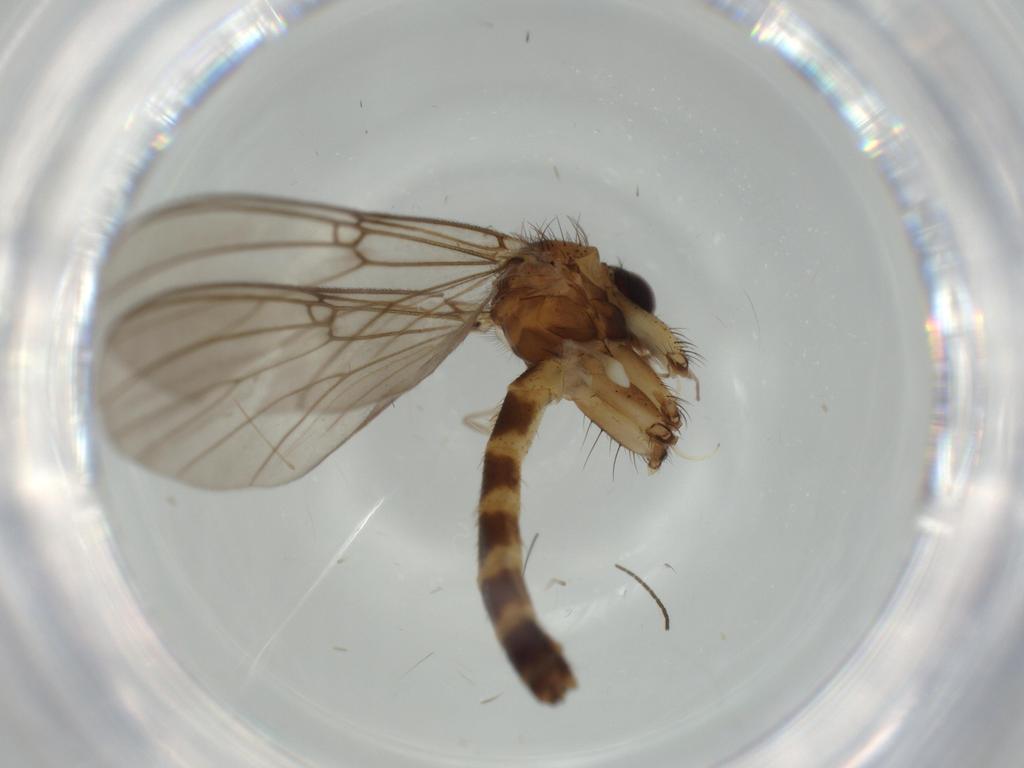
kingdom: Animalia
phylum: Arthropoda
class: Insecta
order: Diptera
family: Mycetophilidae
